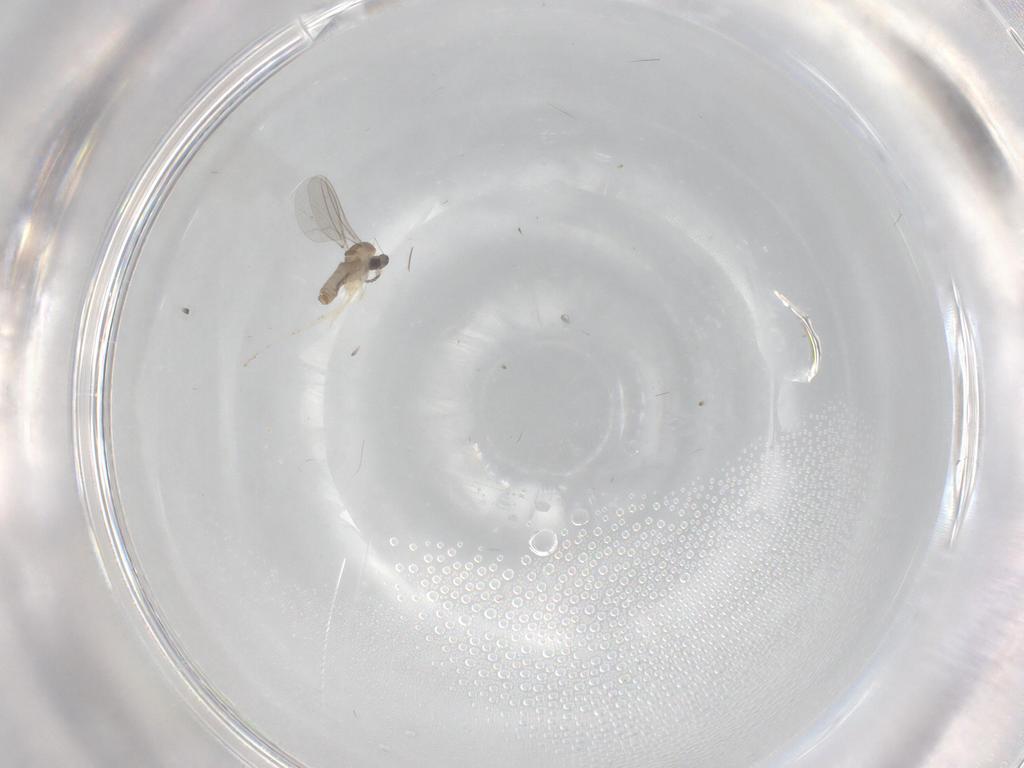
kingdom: Animalia
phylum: Arthropoda
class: Insecta
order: Diptera
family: Cecidomyiidae
